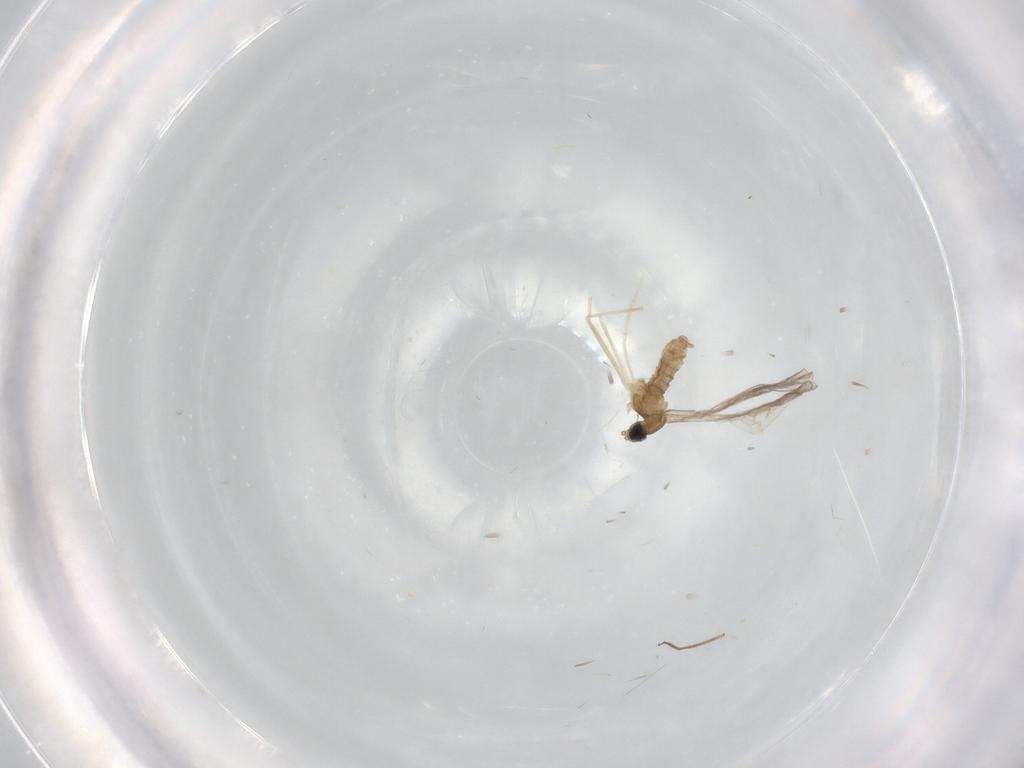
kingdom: Animalia
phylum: Arthropoda
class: Insecta
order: Diptera
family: Chironomidae
